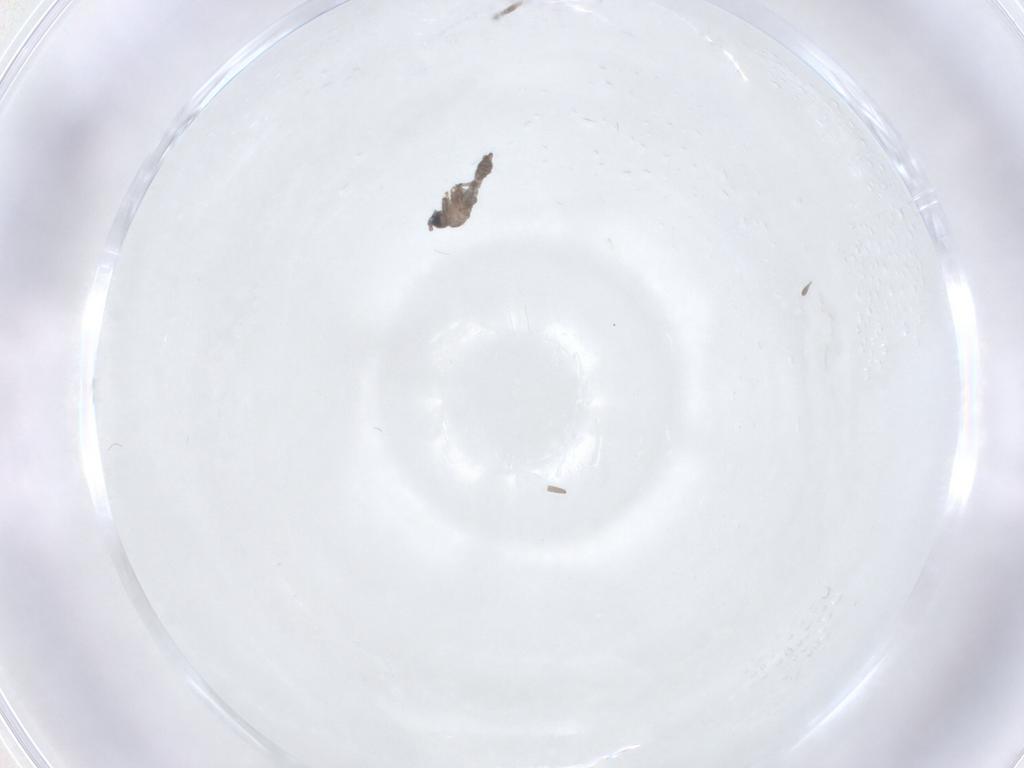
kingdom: Animalia
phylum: Arthropoda
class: Insecta
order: Diptera
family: Sciaridae
